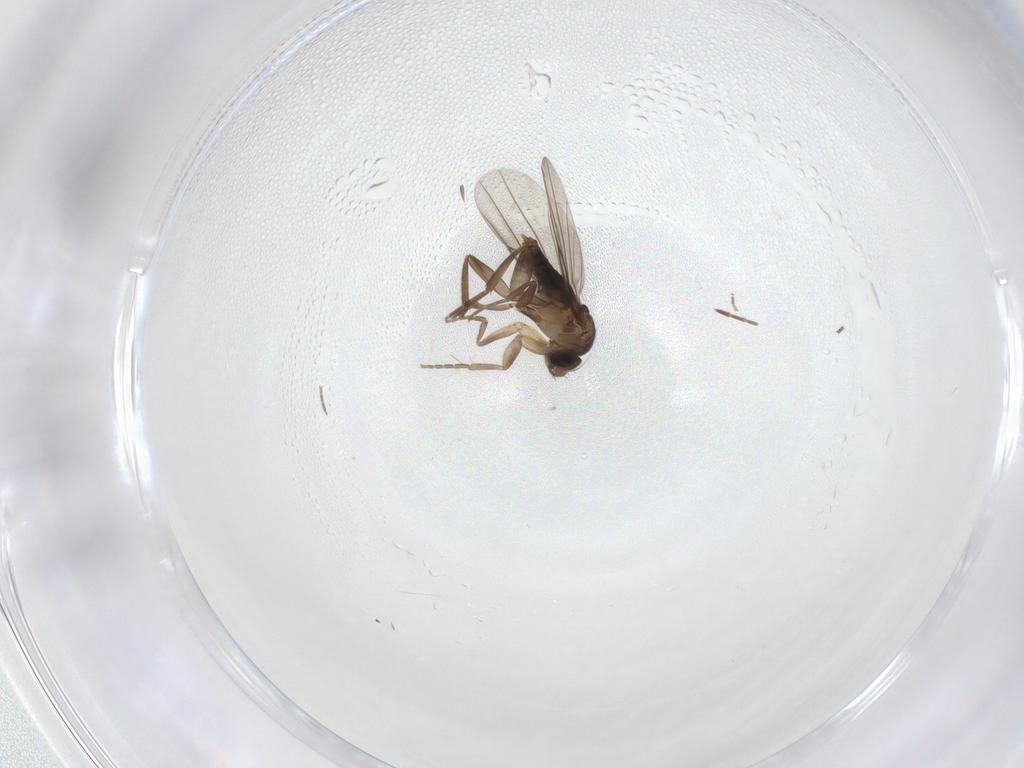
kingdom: Animalia
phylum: Arthropoda
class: Insecta
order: Diptera
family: Phoridae
